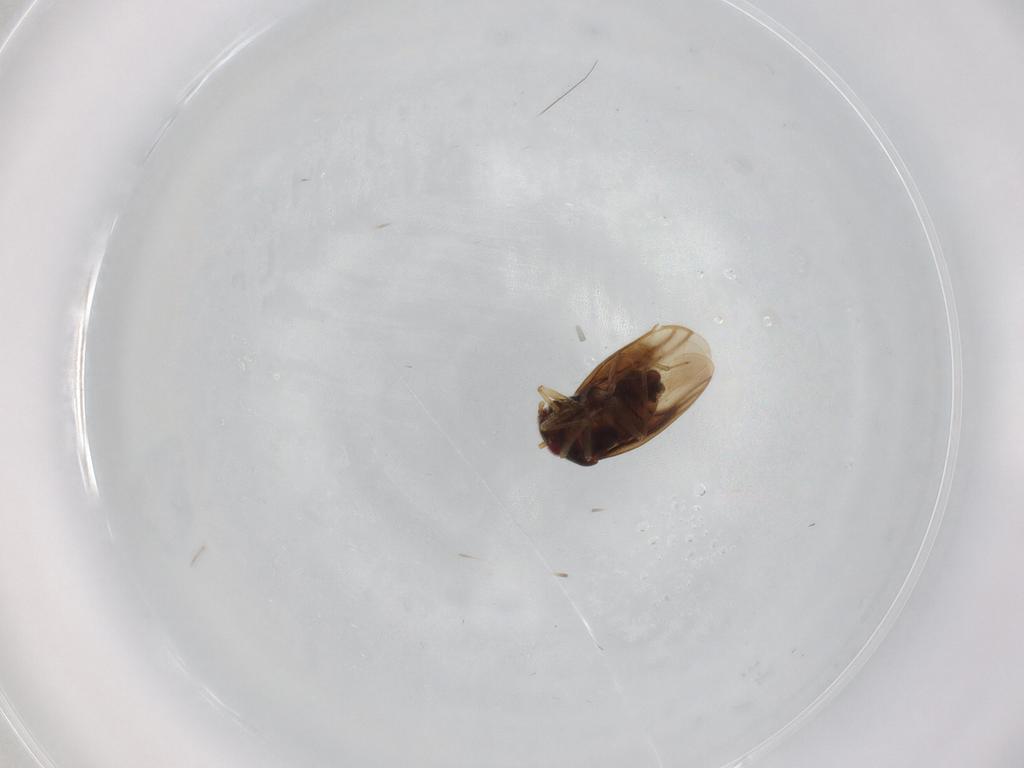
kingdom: Animalia
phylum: Arthropoda
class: Insecta
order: Hemiptera
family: Schizopteridae
